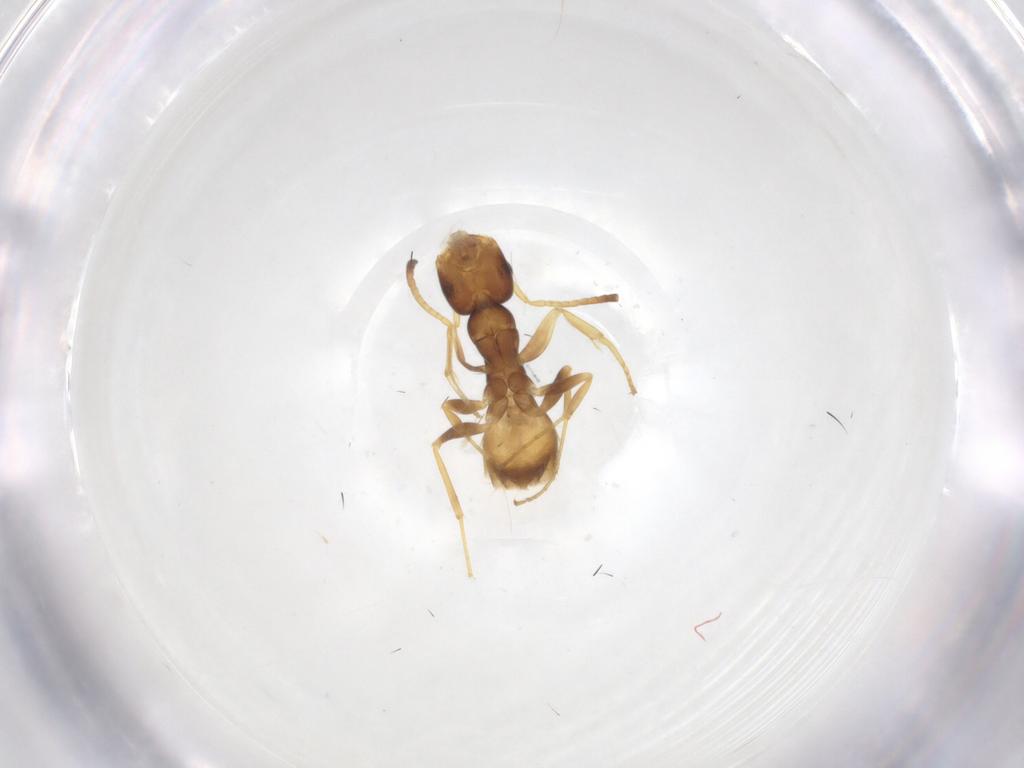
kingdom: Animalia
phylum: Arthropoda
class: Insecta
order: Hymenoptera
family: Formicidae
